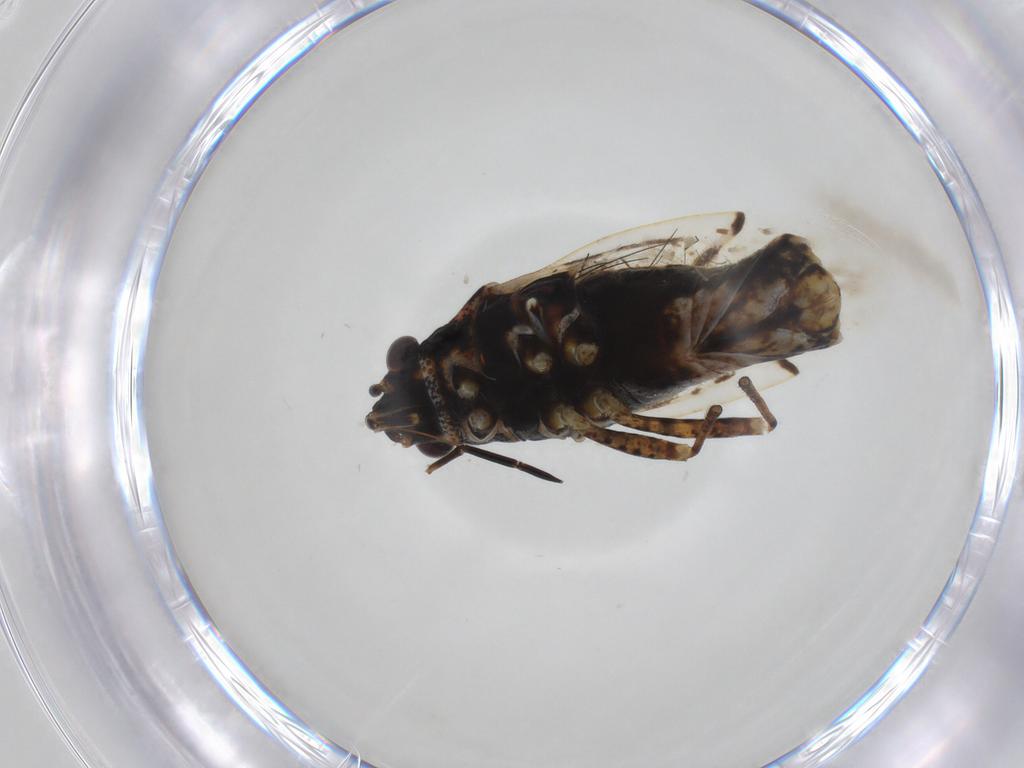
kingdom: Animalia
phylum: Arthropoda
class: Insecta
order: Hemiptera
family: Lygaeidae
